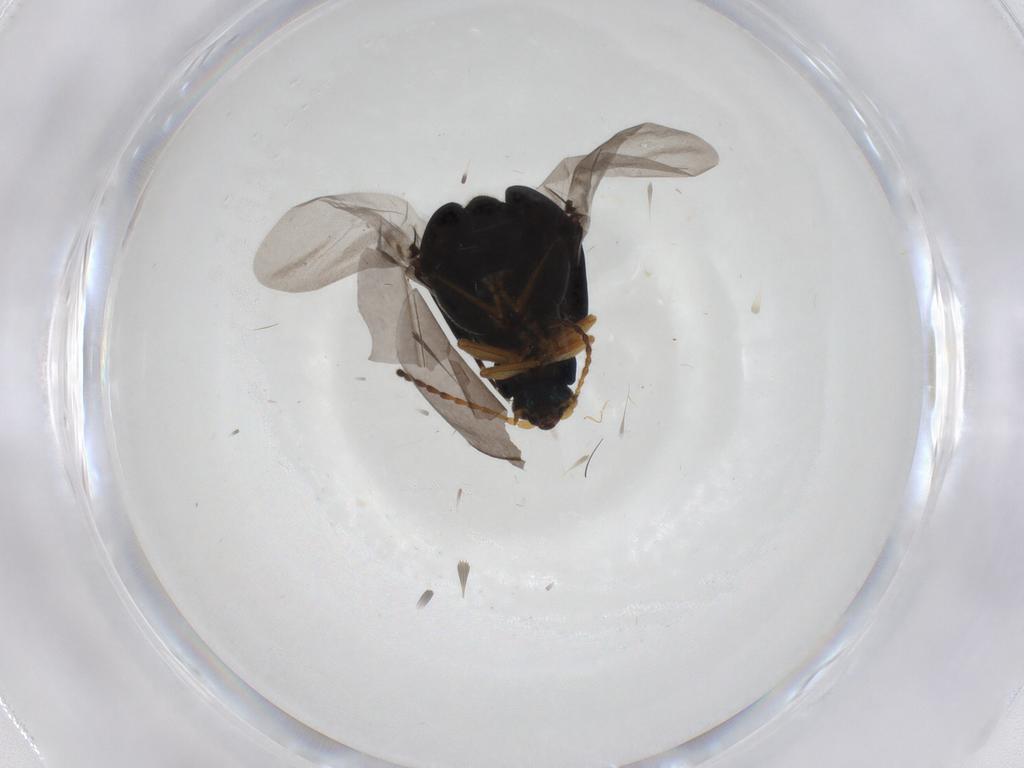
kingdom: Animalia
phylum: Arthropoda
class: Insecta
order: Coleoptera
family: Chrysomelidae
